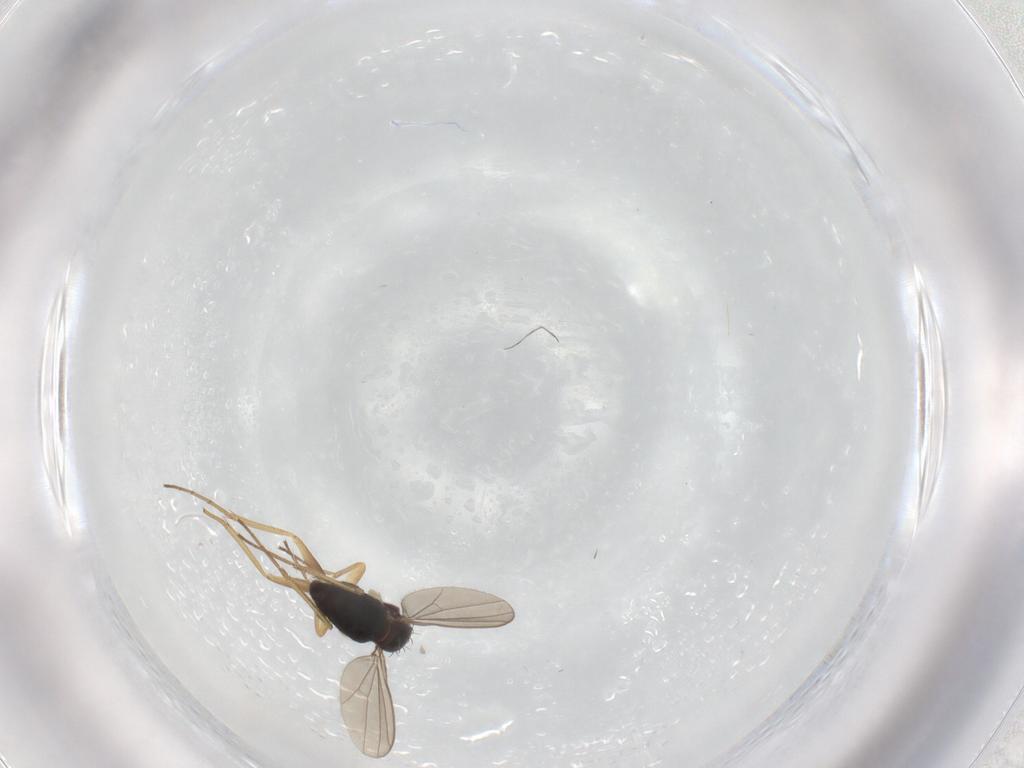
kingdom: Animalia
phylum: Arthropoda
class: Insecta
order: Diptera
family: Dolichopodidae
